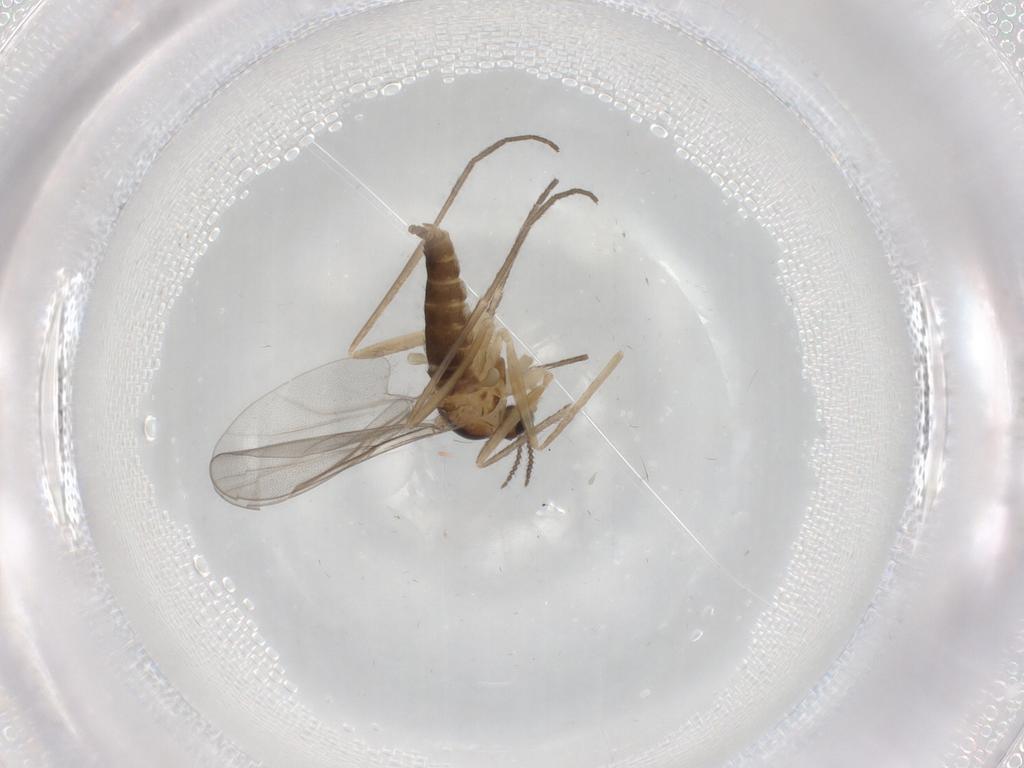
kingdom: Animalia
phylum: Arthropoda
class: Insecta
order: Diptera
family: Cecidomyiidae
